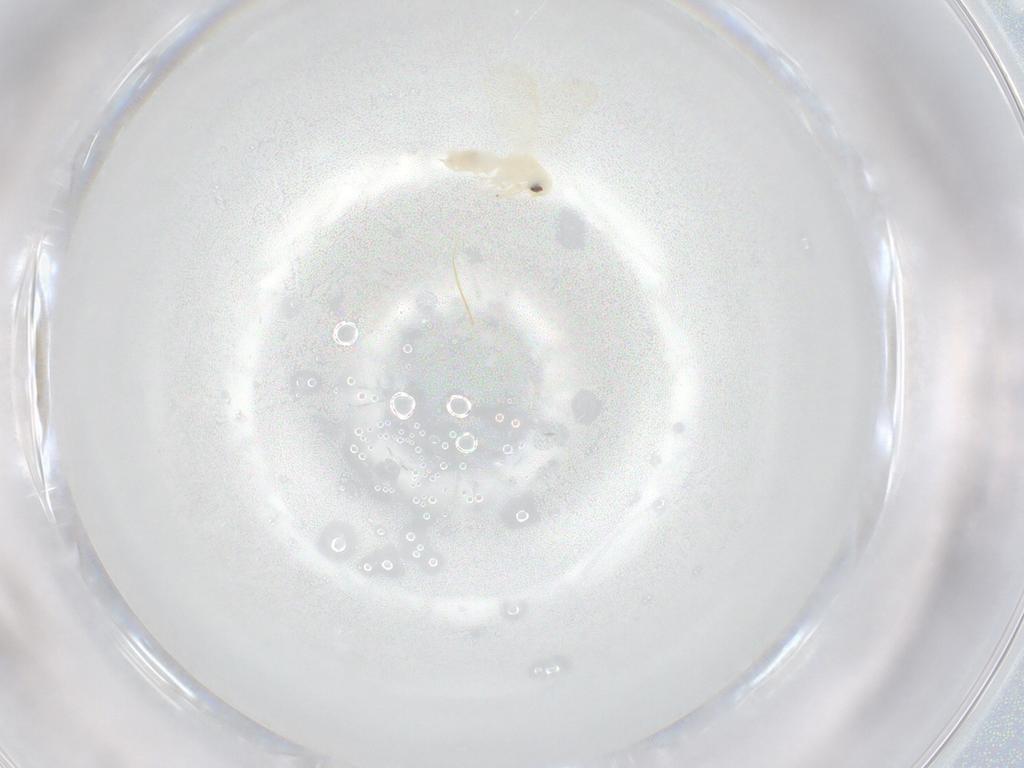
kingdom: Animalia
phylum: Arthropoda
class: Insecta
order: Hemiptera
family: Aleyrodidae
